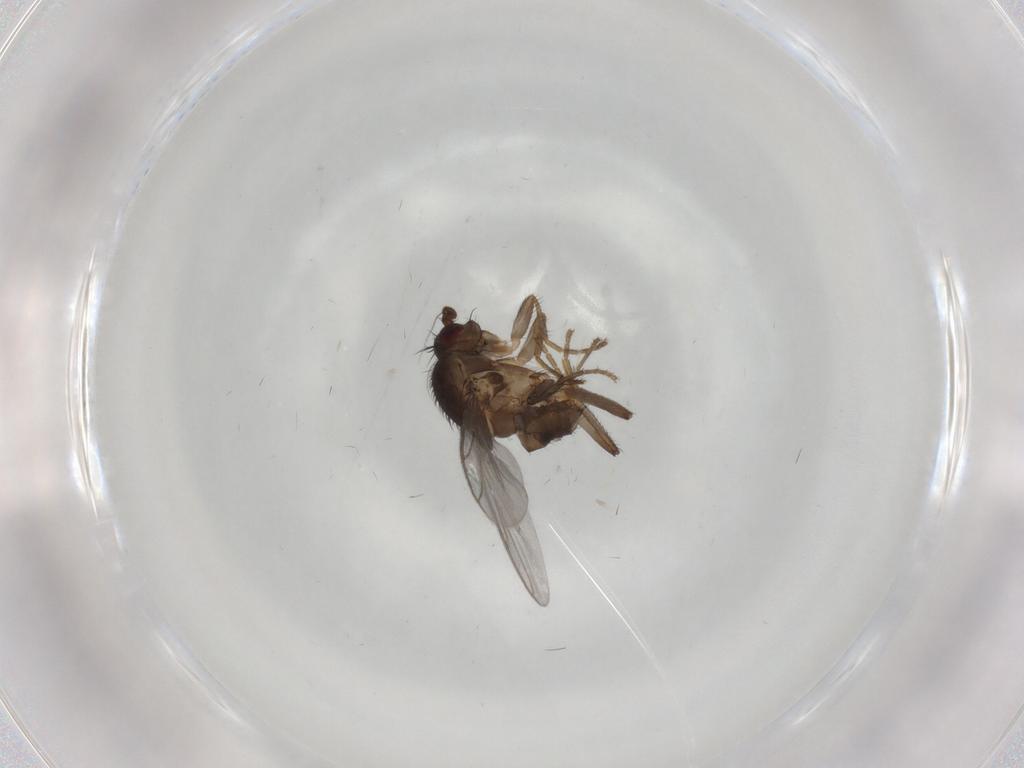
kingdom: Animalia
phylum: Arthropoda
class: Insecta
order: Diptera
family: Sphaeroceridae
